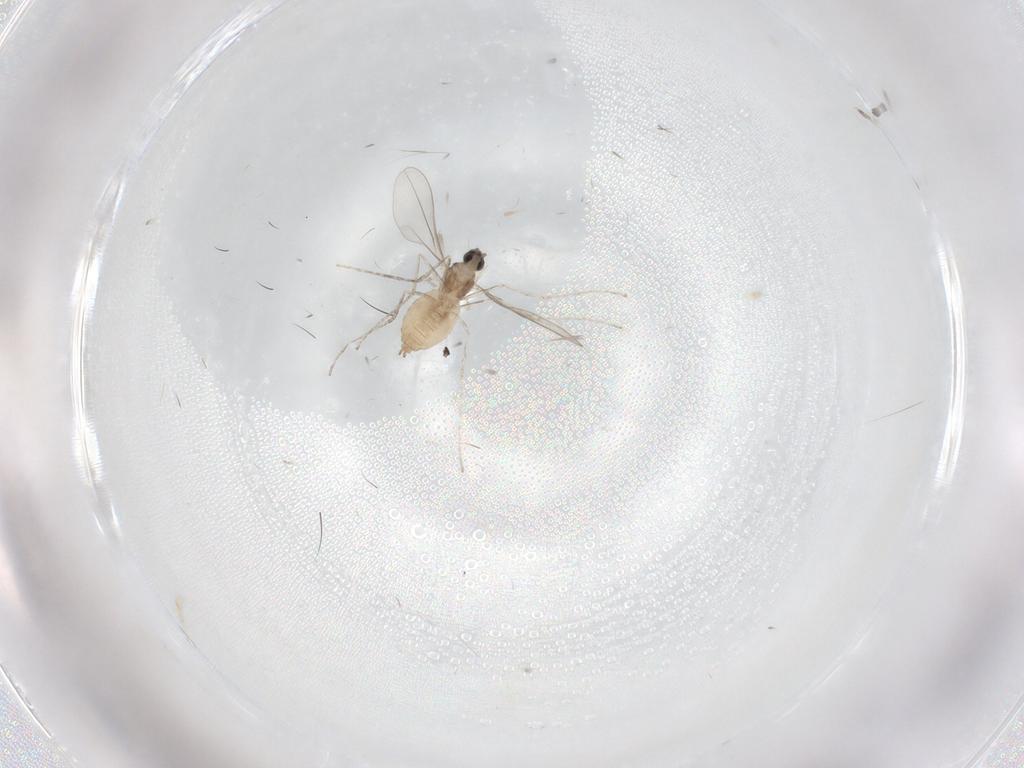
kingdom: Animalia
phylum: Arthropoda
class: Insecta
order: Diptera
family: Cecidomyiidae
